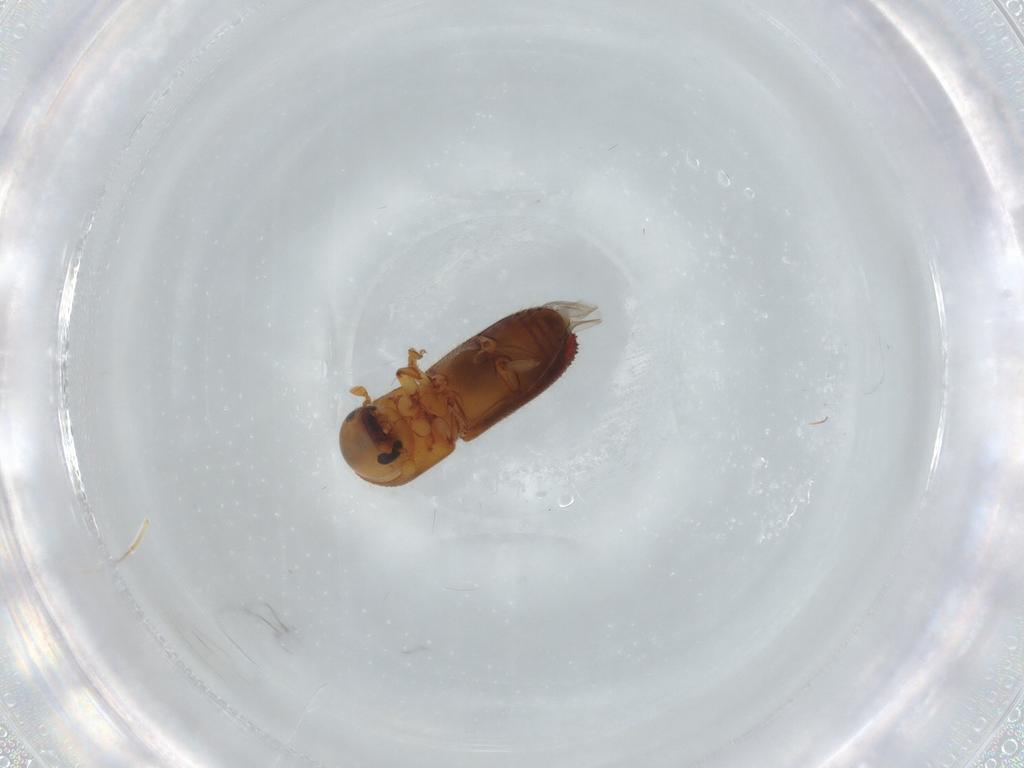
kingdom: Animalia
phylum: Arthropoda
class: Insecta
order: Coleoptera
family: Curculionidae
